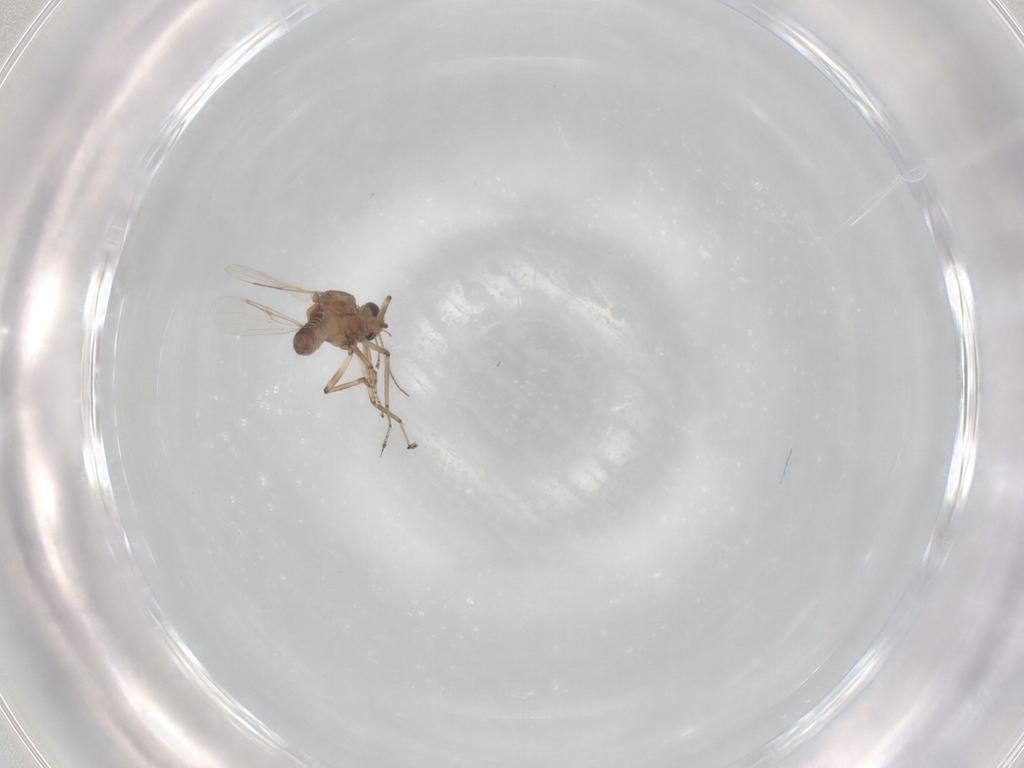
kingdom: Animalia
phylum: Arthropoda
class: Insecta
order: Diptera
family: Ceratopogonidae
